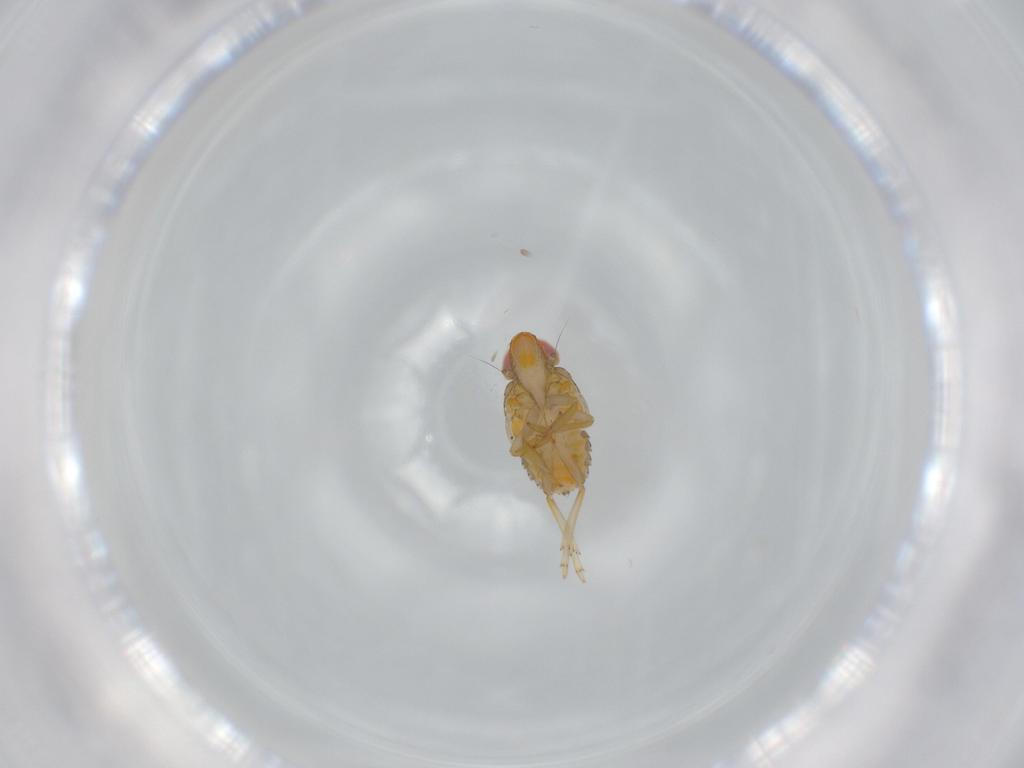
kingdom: Animalia
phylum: Arthropoda
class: Insecta
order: Hemiptera
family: Fulgoroidea_incertae_sedis
